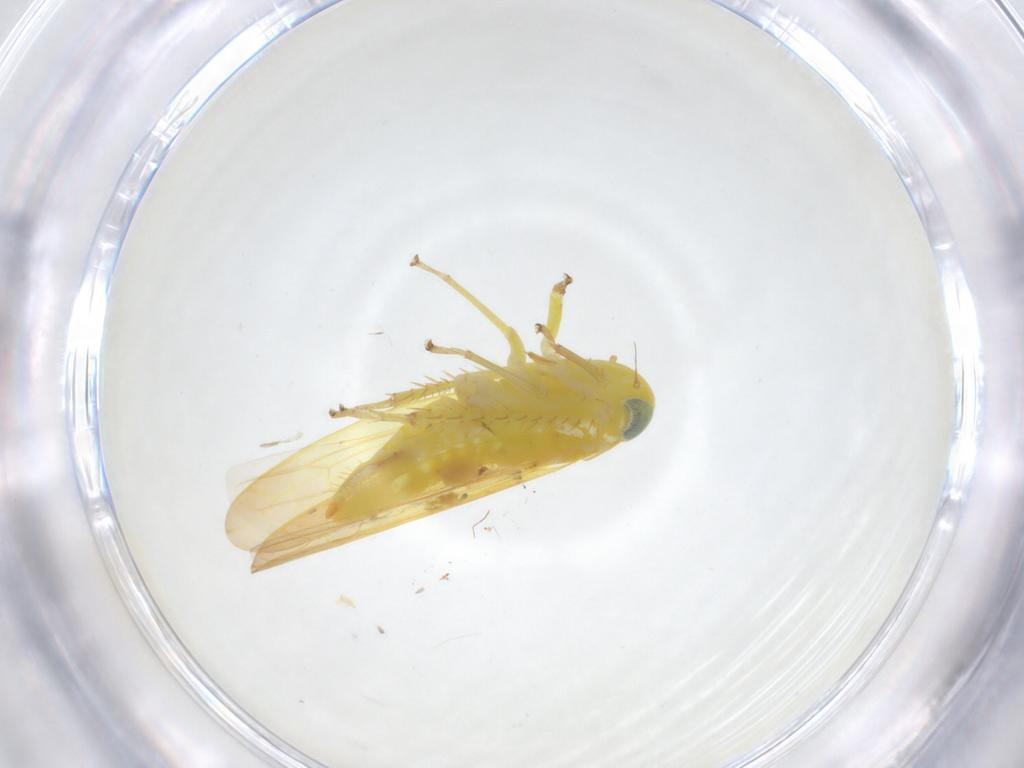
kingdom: Animalia
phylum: Arthropoda
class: Insecta
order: Hemiptera
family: Cicadellidae
